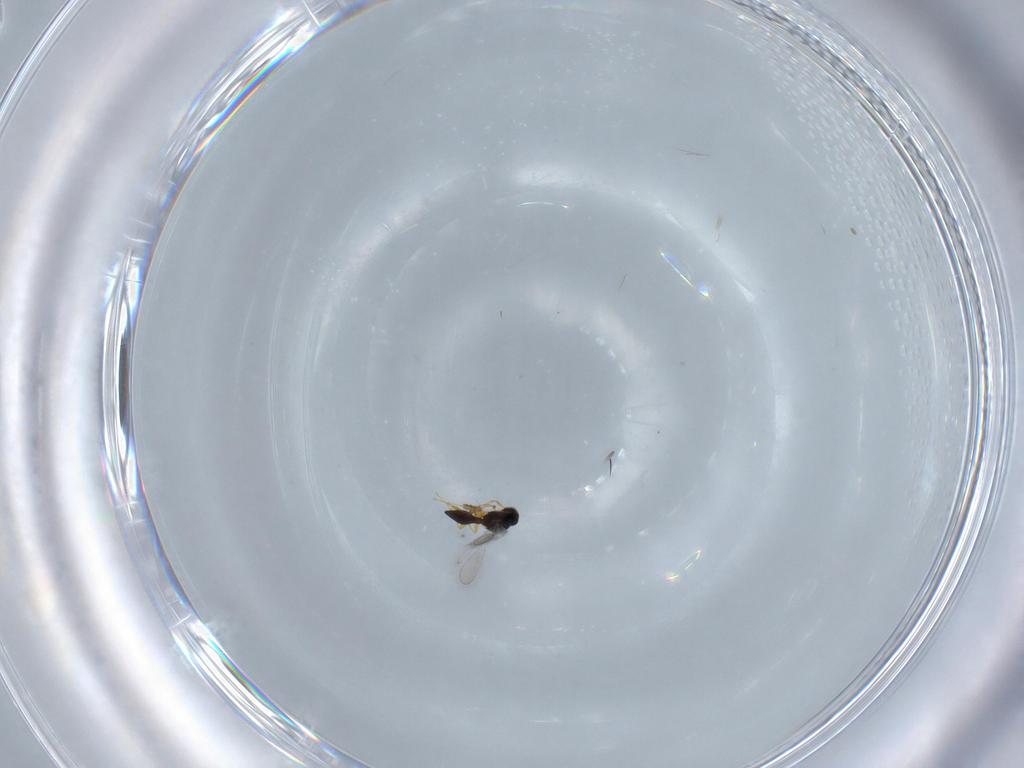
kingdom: Animalia
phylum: Arthropoda
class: Insecta
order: Hymenoptera
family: Platygastridae
